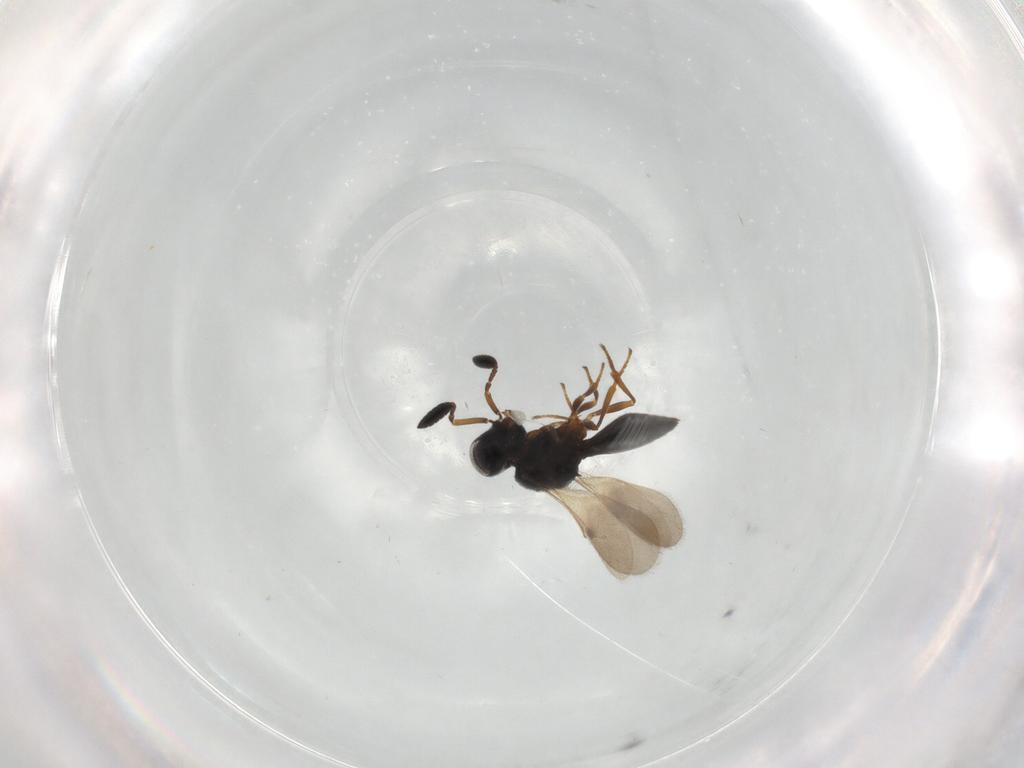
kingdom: Animalia
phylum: Arthropoda
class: Insecta
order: Hymenoptera
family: Scelionidae
